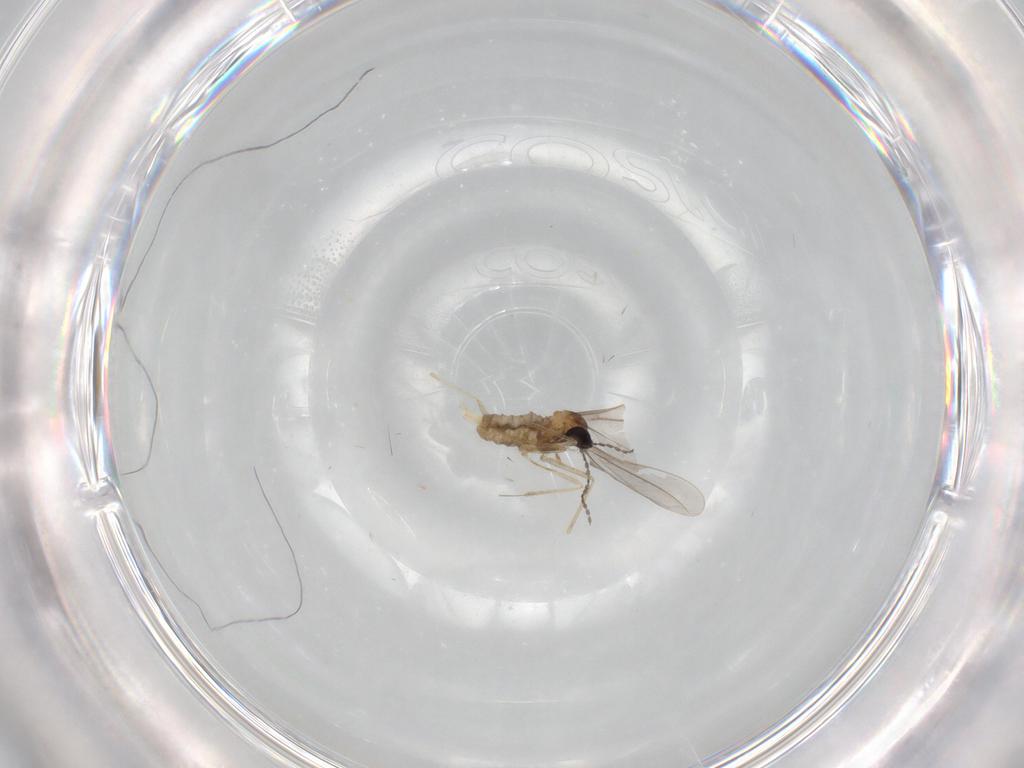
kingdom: Animalia
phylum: Arthropoda
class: Insecta
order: Diptera
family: Cecidomyiidae
